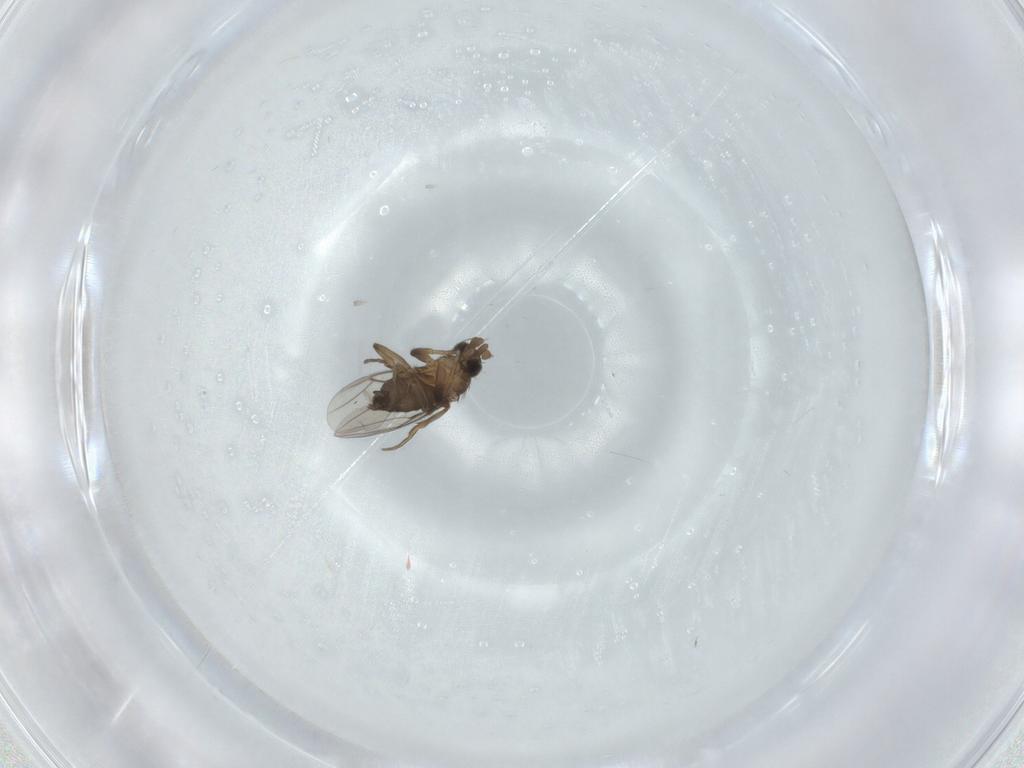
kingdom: Animalia
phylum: Arthropoda
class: Insecta
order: Diptera
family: Phoridae
